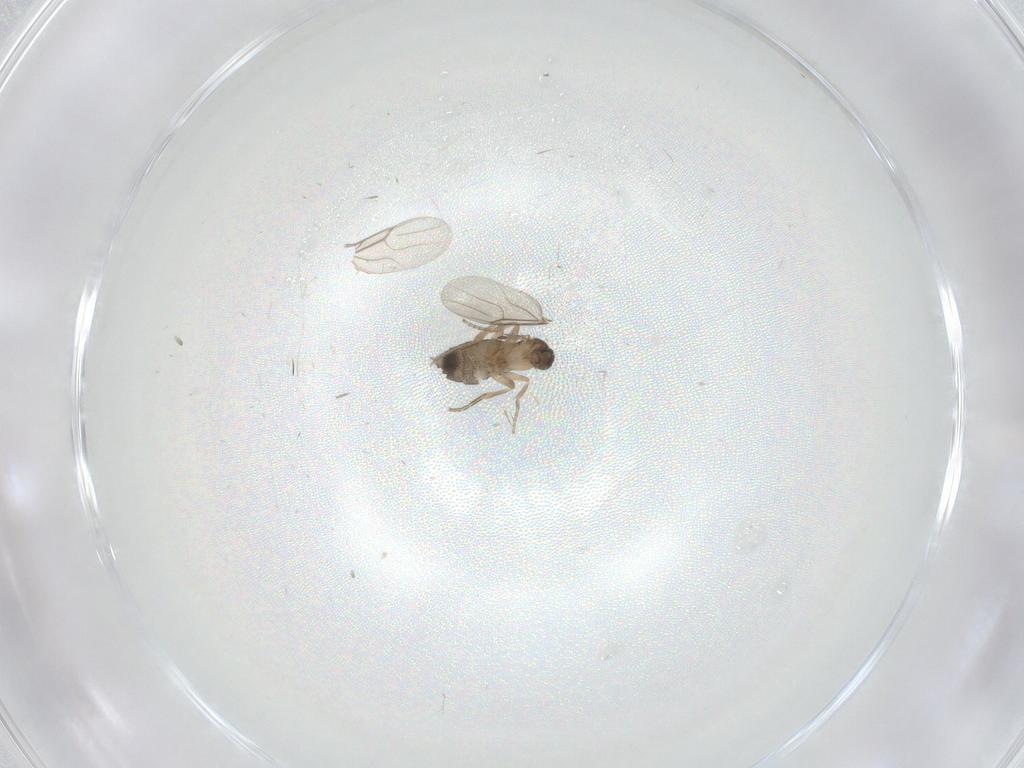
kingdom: Animalia
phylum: Arthropoda
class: Insecta
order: Diptera
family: Phoridae
